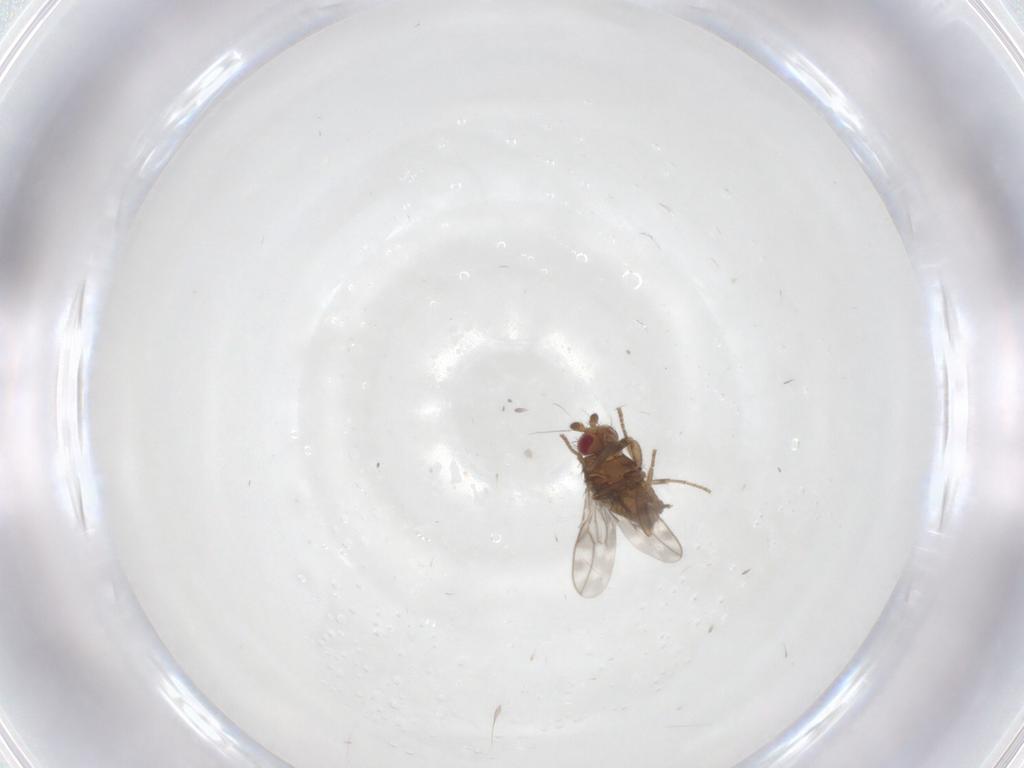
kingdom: Animalia
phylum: Arthropoda
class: Insecta
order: Diptera
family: Sphaeroceridae
